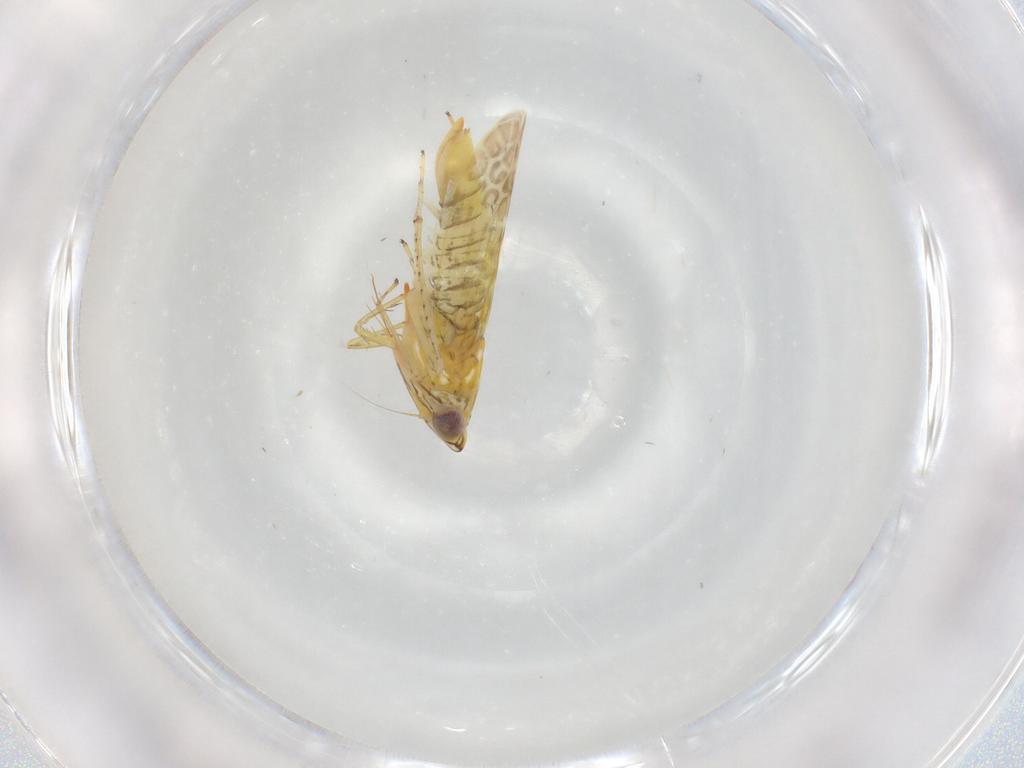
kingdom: Animalia
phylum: Arthropoda
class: Insecta
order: Hemiptera
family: Cicadellidae
